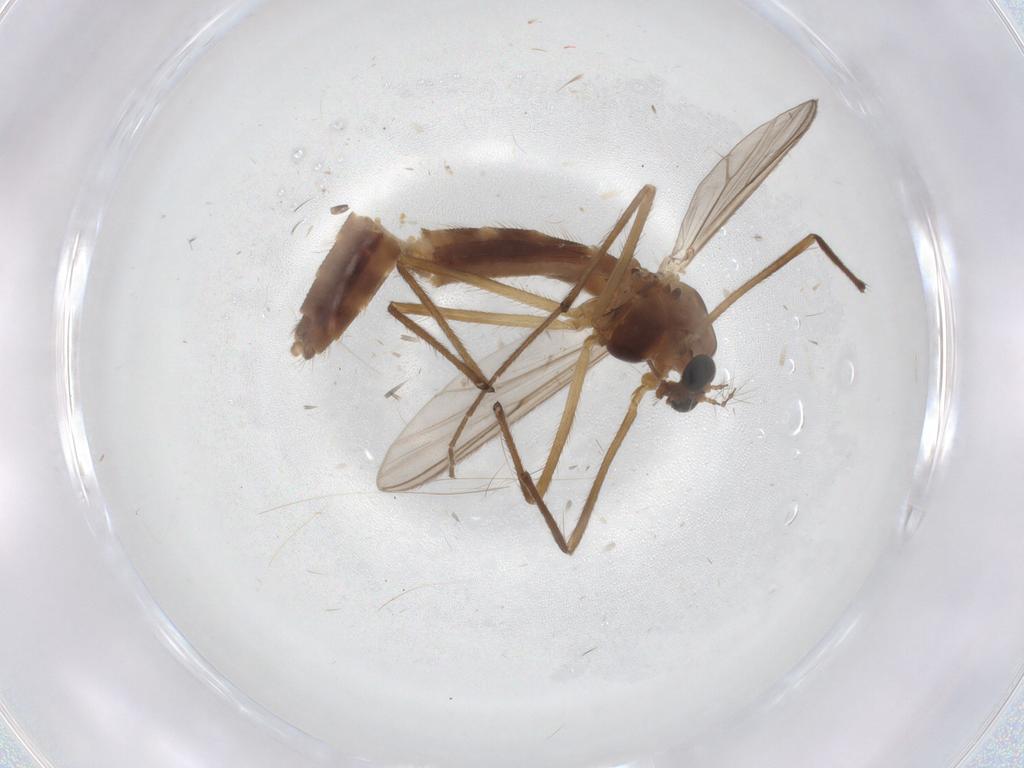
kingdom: Animalia
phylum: Arthropoda
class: Insecta
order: Diptera
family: Chironomidae
